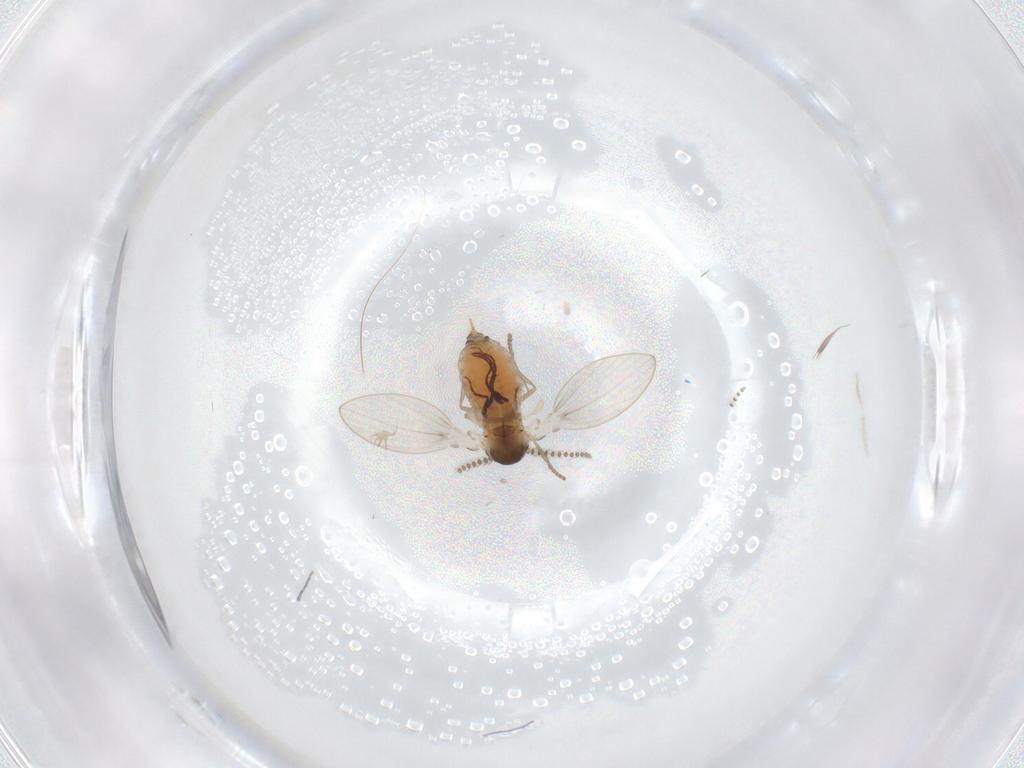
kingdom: Animalia
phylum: Arthropoda
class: Insecta
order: Diptera
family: Psychodidae
